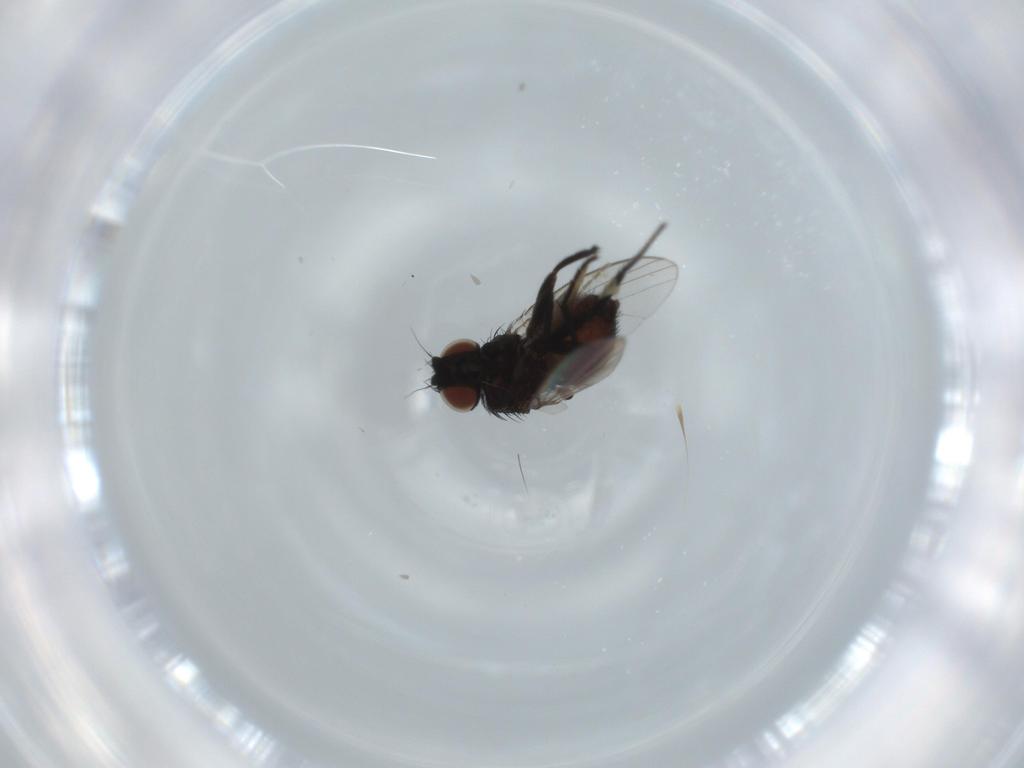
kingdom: Animalia
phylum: Arthropoda
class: Insecta
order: Diptera
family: Milichiidae
